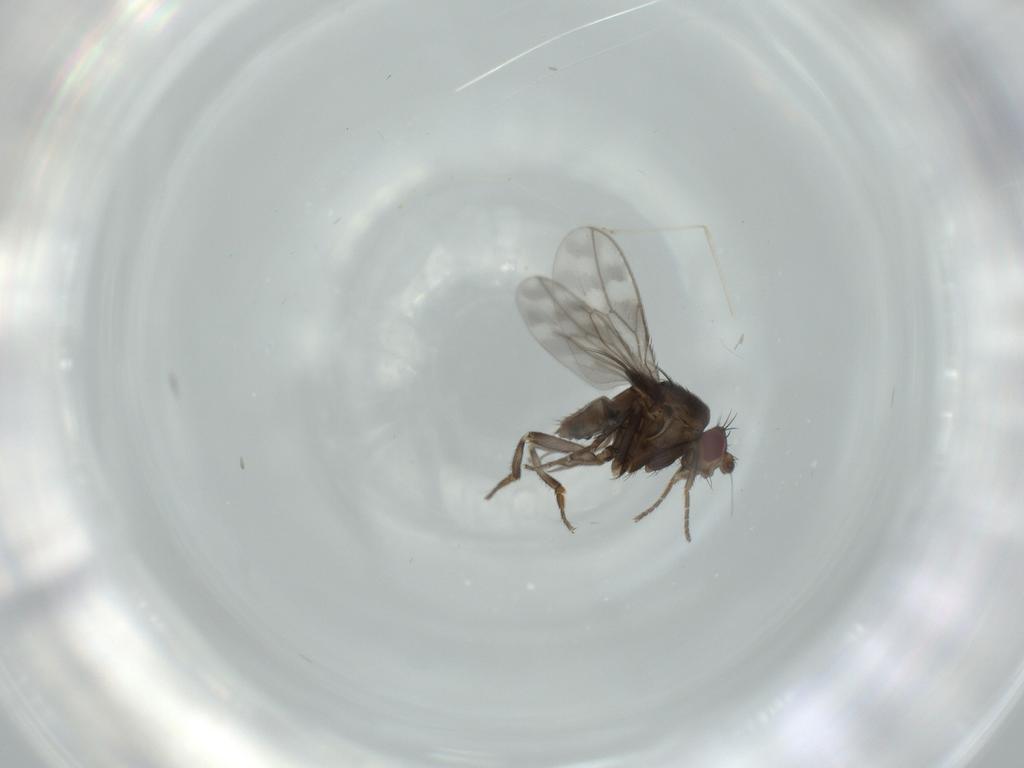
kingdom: Animalia
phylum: Arthropoda
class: Insecta
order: Diptera
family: Sphaeroceridae
